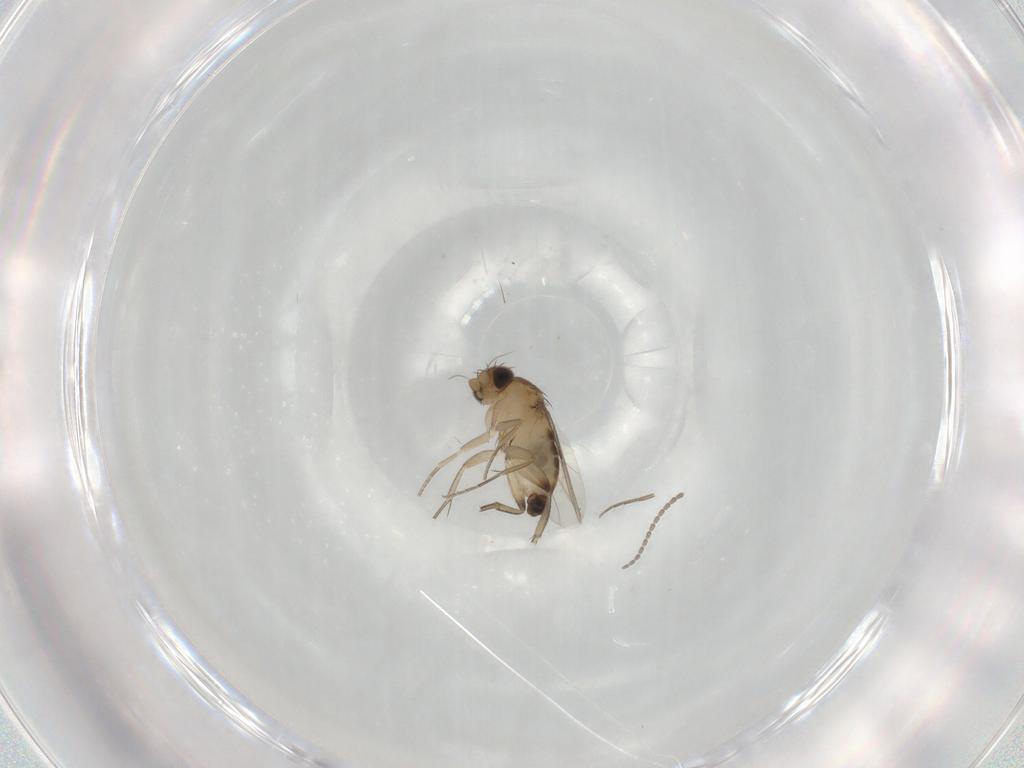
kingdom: Animalia
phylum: Arthropoda
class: Insecta
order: Diptera
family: Phoridae
